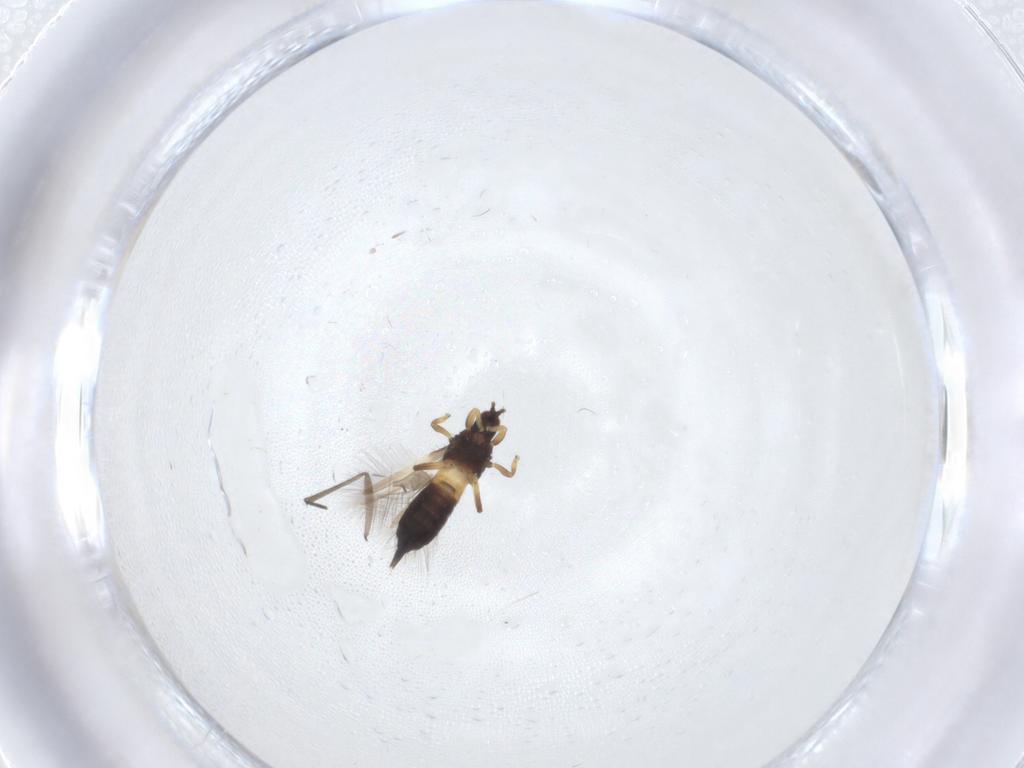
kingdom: Animalia
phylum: Arthropoda
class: Insecta
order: Thysanoptera
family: Phlaeothripidae
